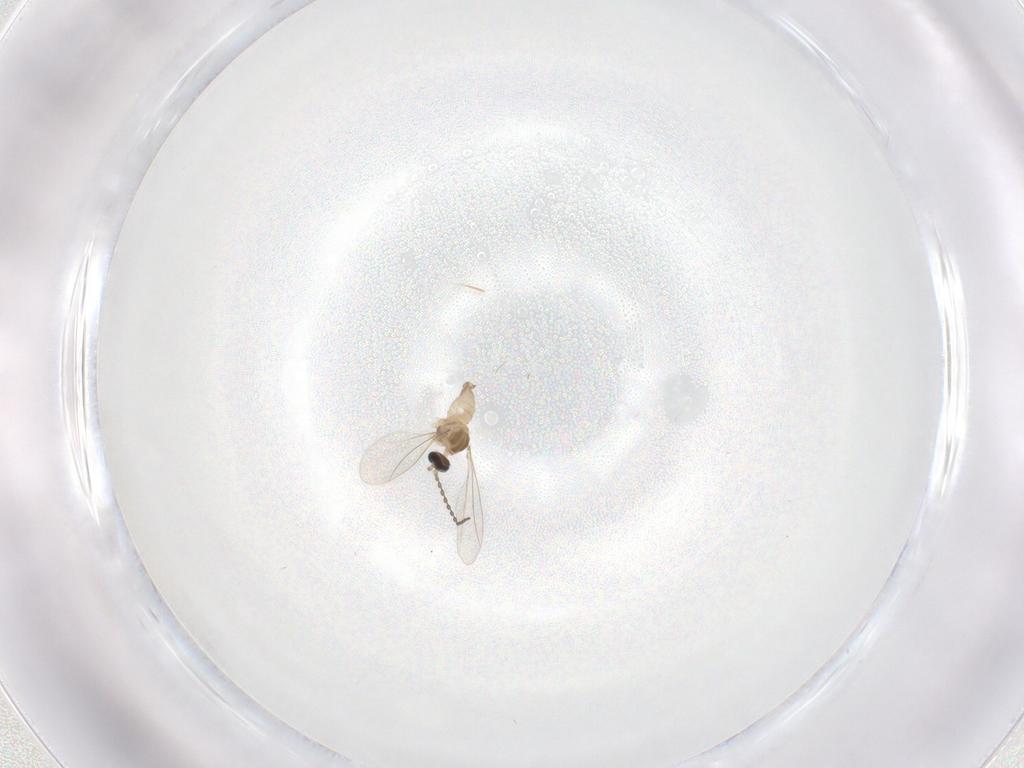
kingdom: Animalia
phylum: Arthropoda
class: Insecta
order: Diptera
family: Cecidomyiidae
